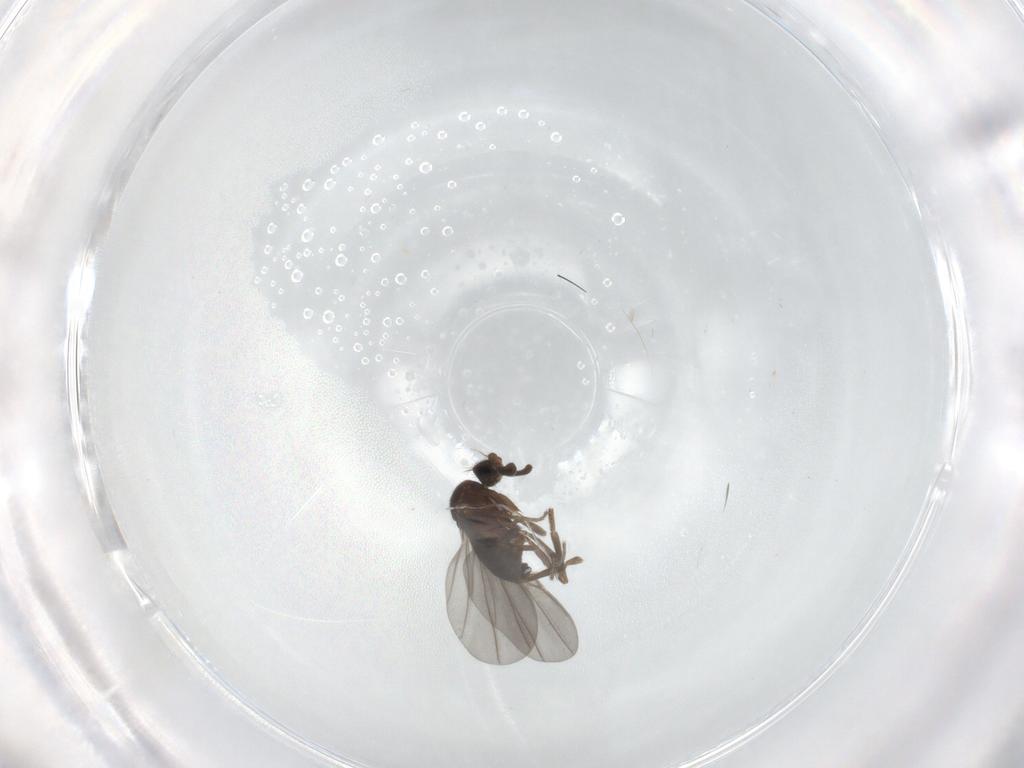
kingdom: Animalia
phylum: Arthropoda
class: Insecta
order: Diptera
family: Phoridae
